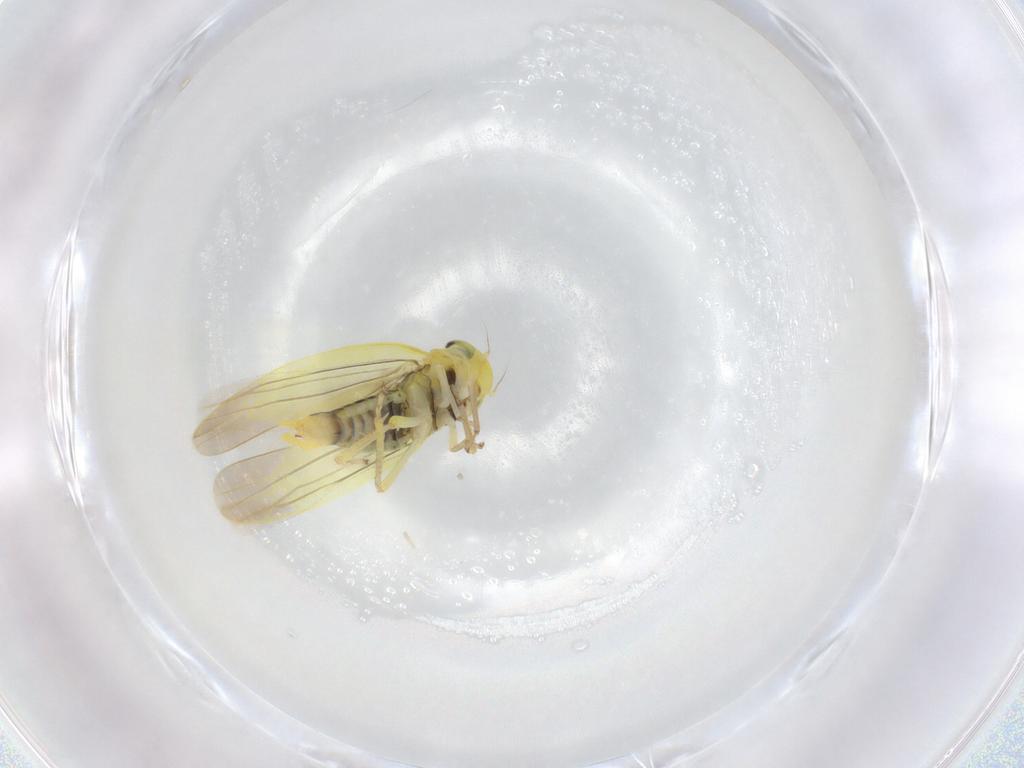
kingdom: Animalia
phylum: Arthropoda
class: Insecta
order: Hemiptera
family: Cicadellidae
